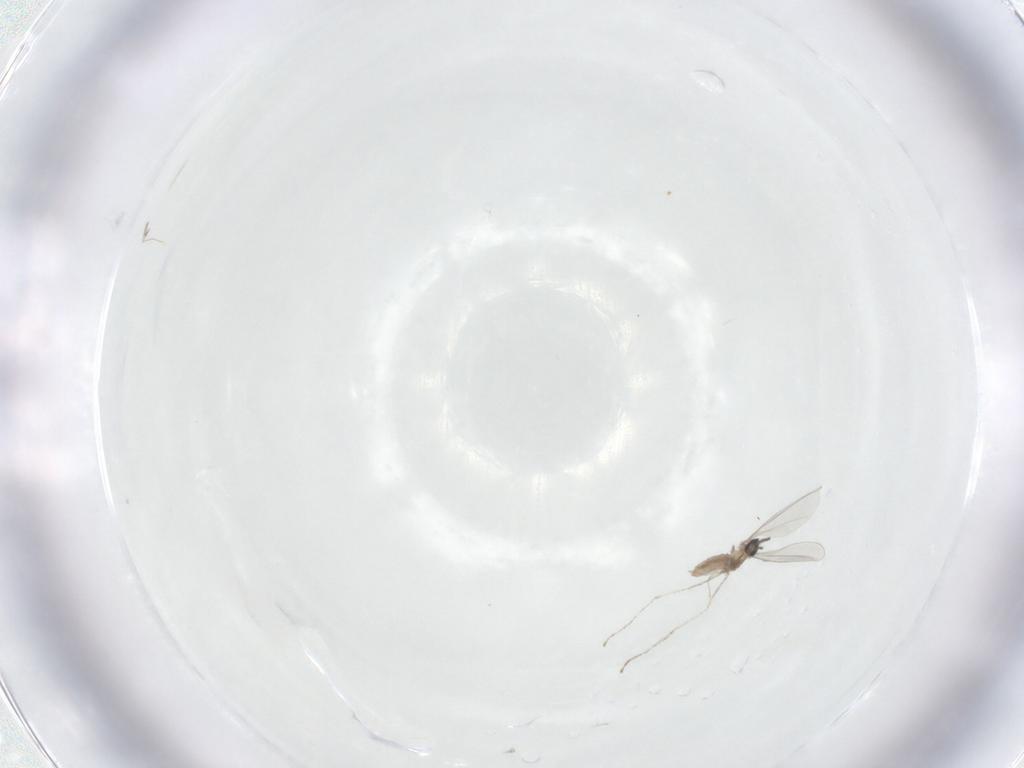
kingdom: Animalia
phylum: Arthropoda
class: Insecta
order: Diptera
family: Cecidomyiidae
